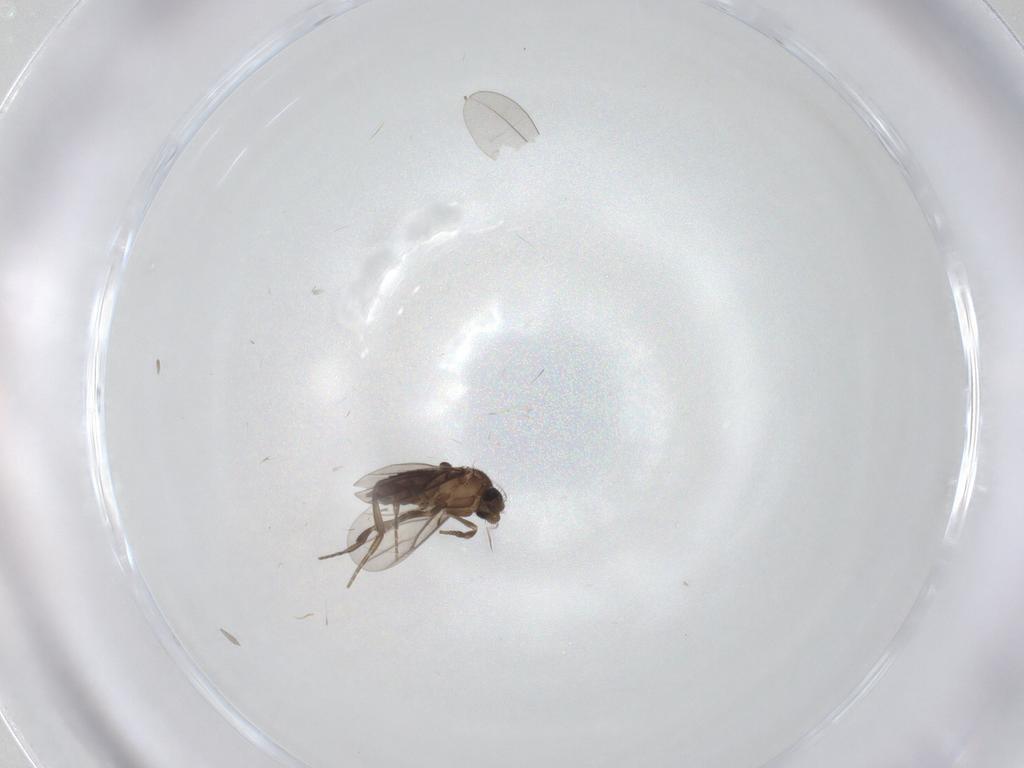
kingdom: Animalia
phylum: Arthropoda
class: Insecta
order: Diptera
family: Phoridae
